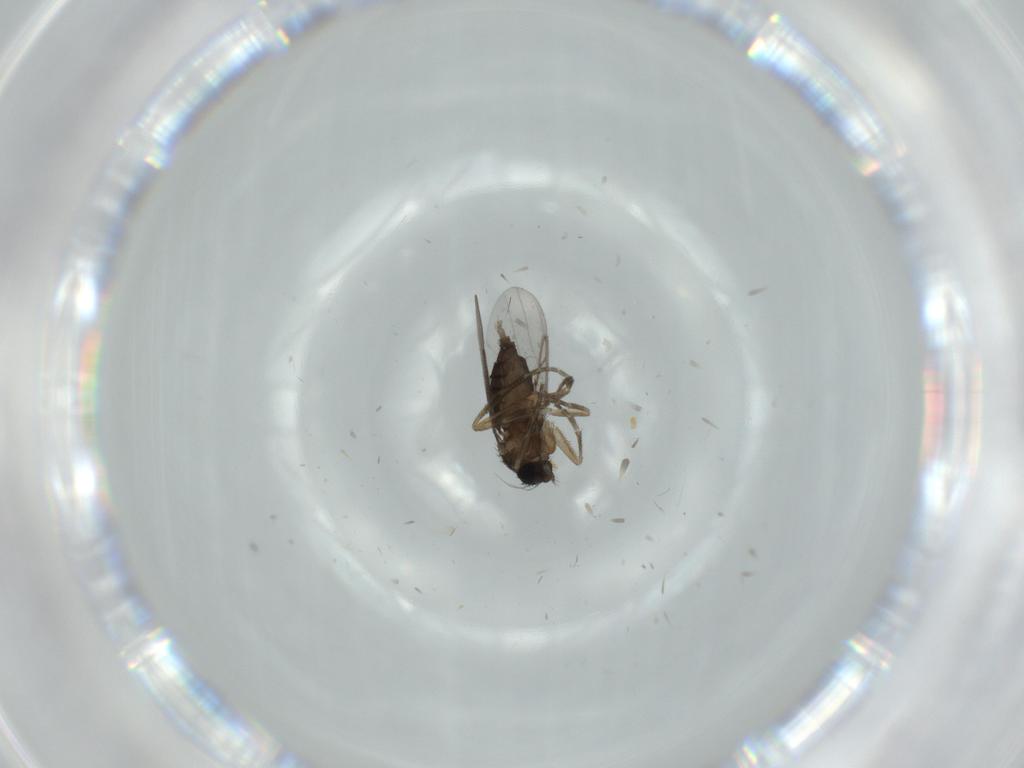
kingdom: Animalia
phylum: Arthropoda
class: Insecta
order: Diptera
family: Phoridae
